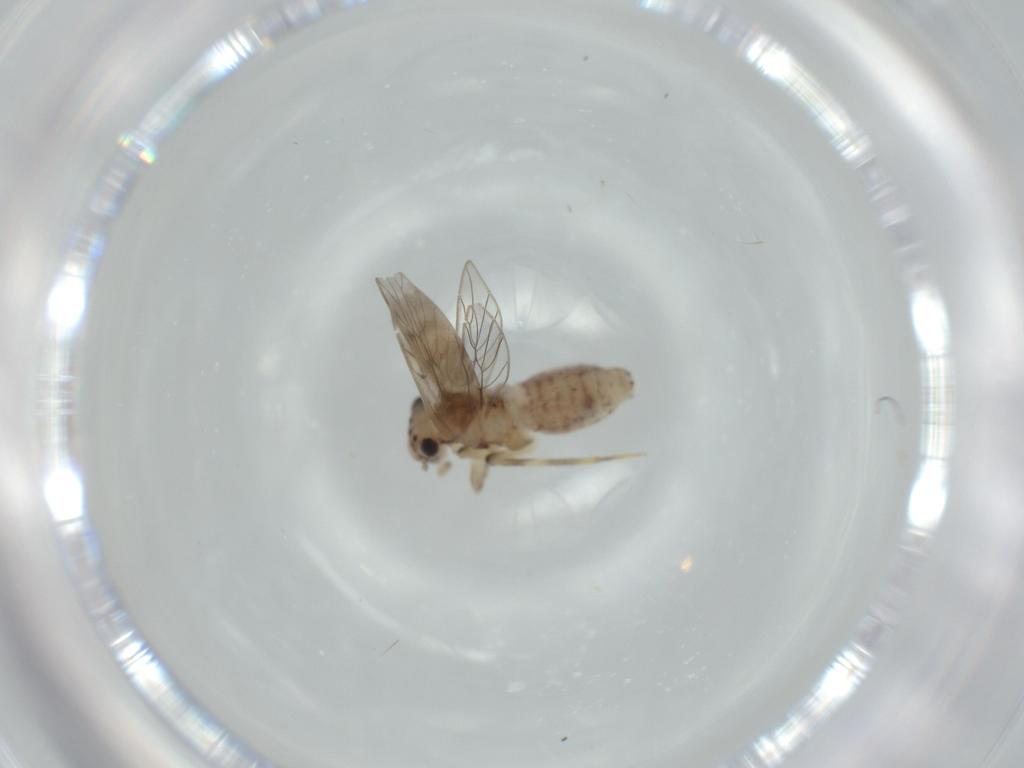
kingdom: Animalia
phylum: Arthropoda
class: Insecta
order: Psocodea
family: Lepidopsocidae
